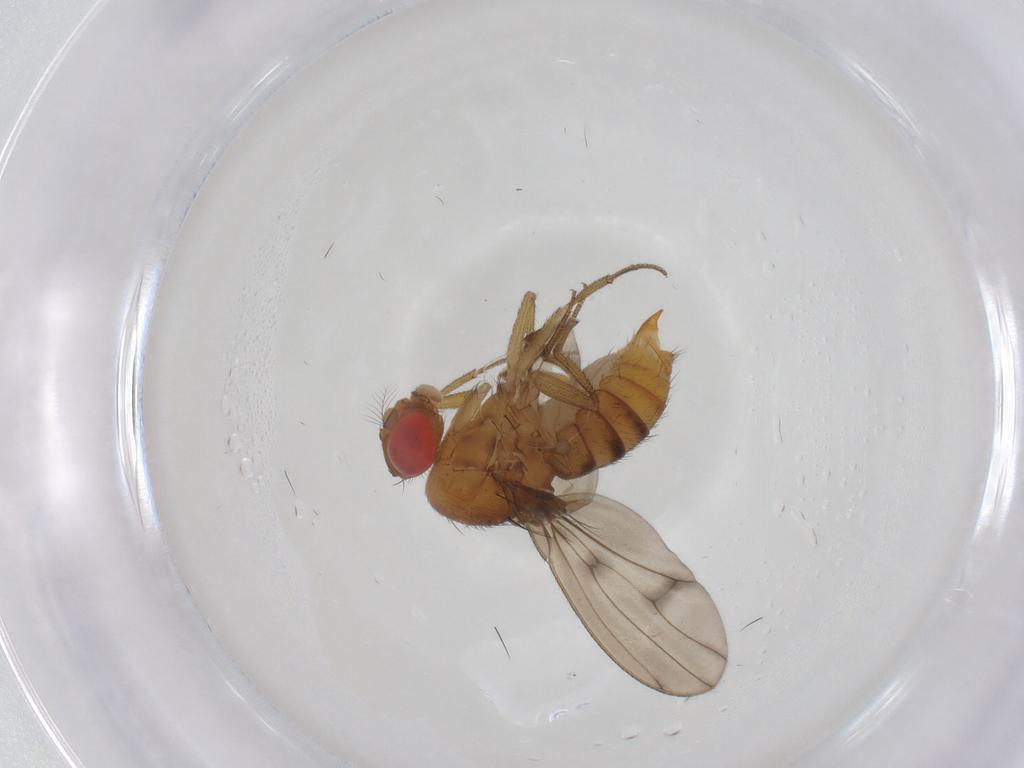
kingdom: Animalia
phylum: Arthropoda
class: Insecta
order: Diptera
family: Drosophilidae
